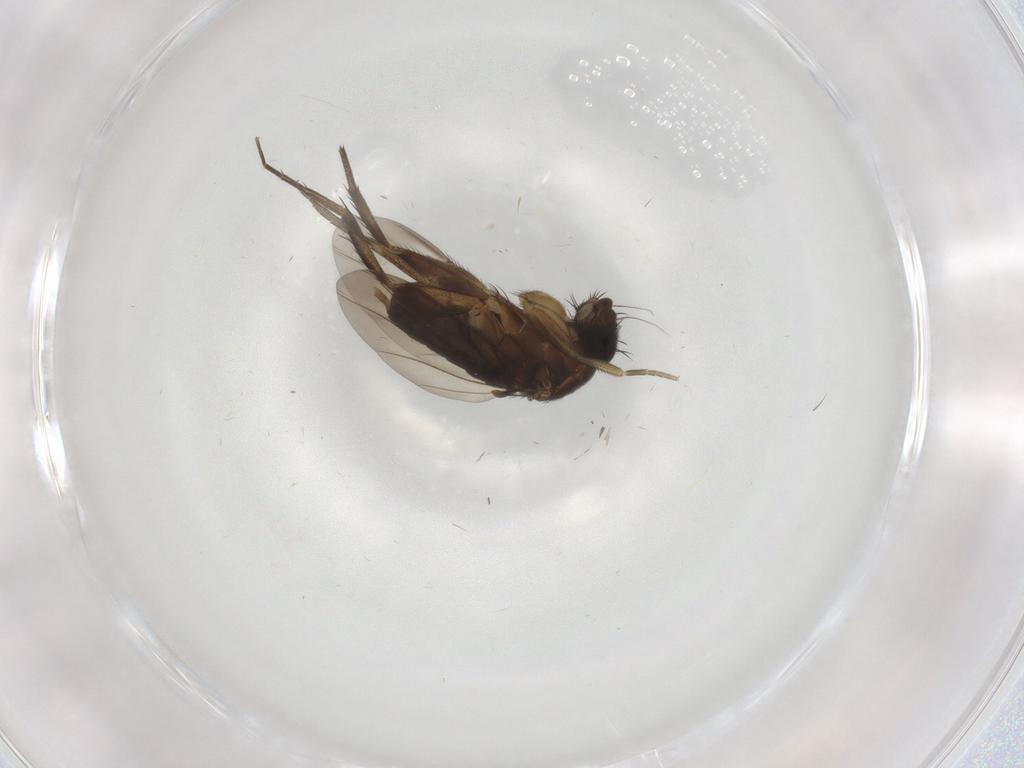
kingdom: Animalia
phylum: Arthropoda
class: Insecta
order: Diptera
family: Phoridae
